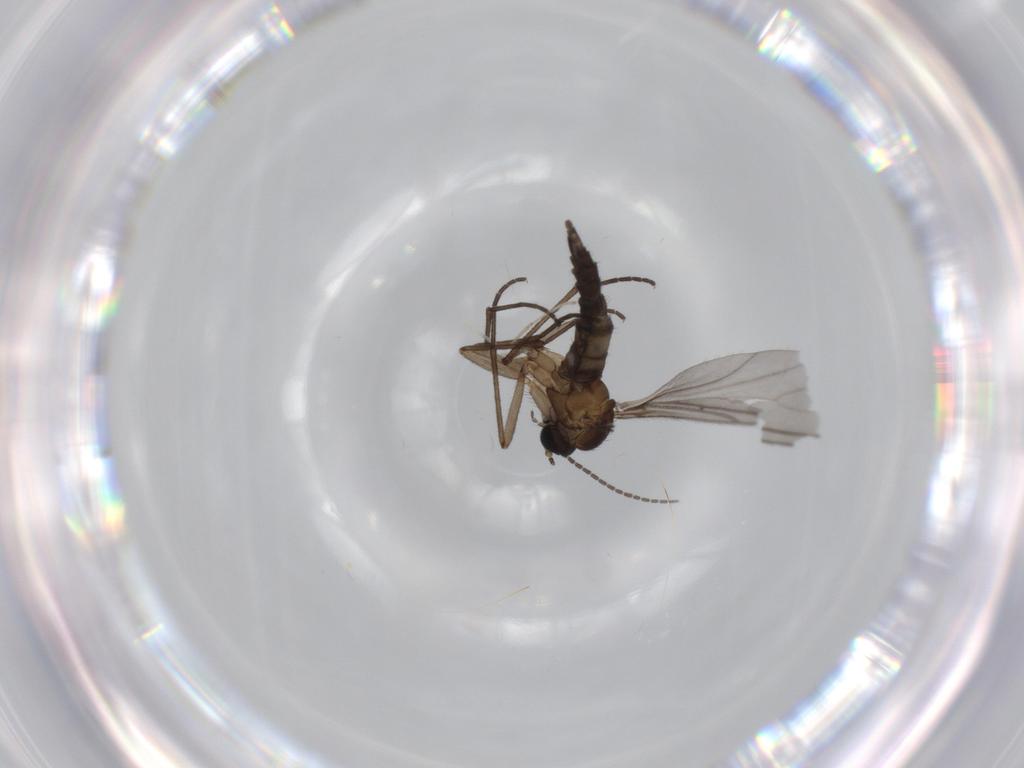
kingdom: Animalia
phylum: Arthropoda
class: Insecta
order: Diptera
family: Sciaridae
